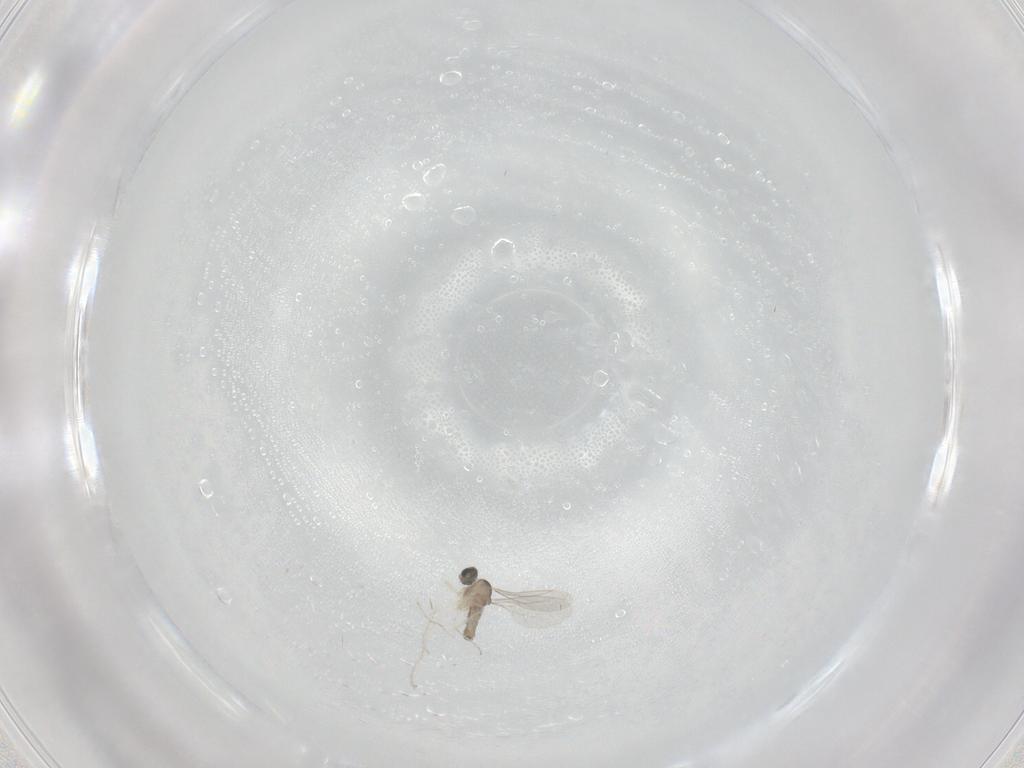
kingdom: Animalia
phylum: Arthropoda
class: Insecta
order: Diptera
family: Cecidomyiidae
